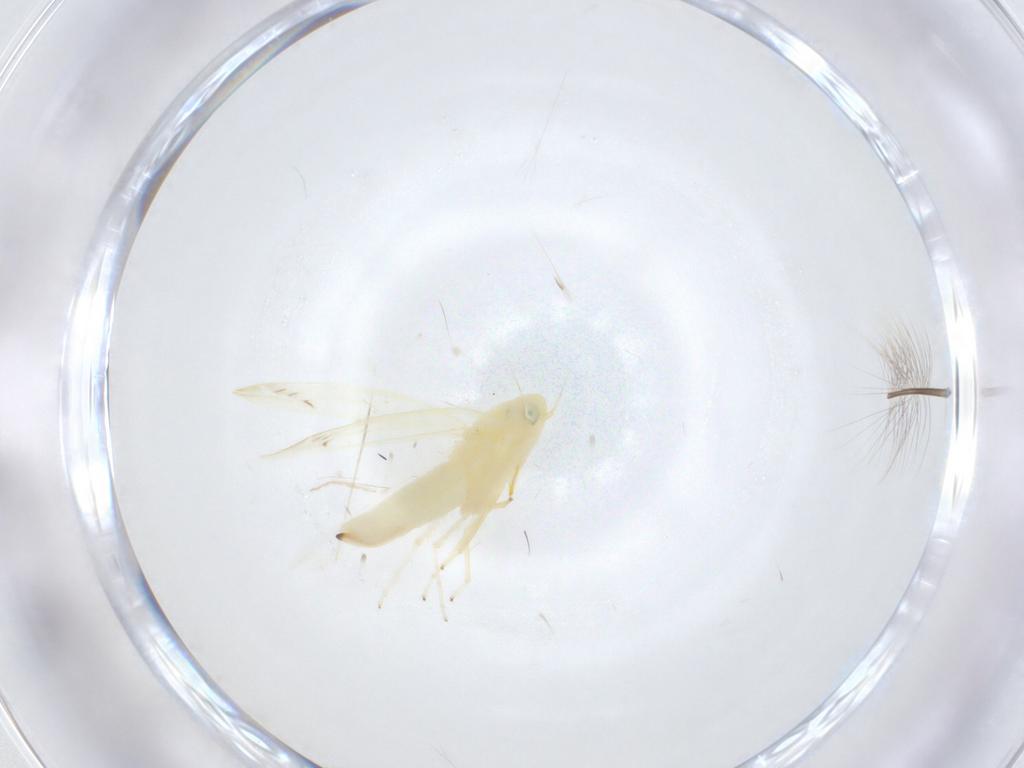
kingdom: Animalia
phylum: Arthropoda
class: Insecta
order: Hemiptera
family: Cicadellidae
